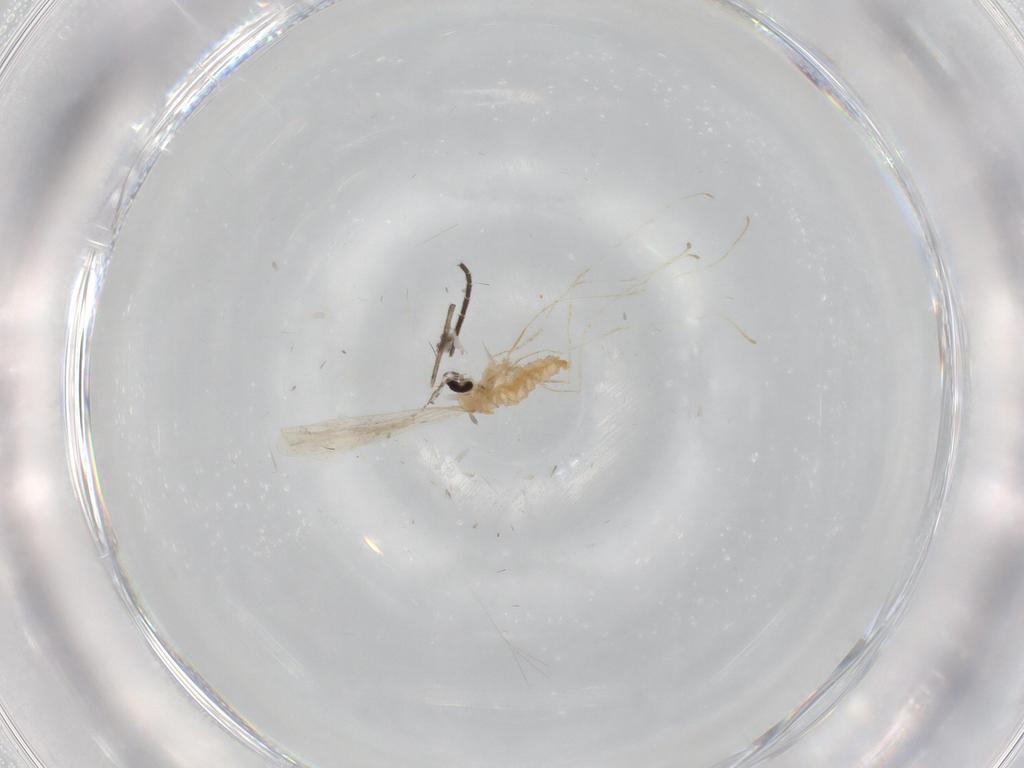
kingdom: Animalia
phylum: Arthropoda
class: Insecta
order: Diptera
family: Cecidomyiidae
